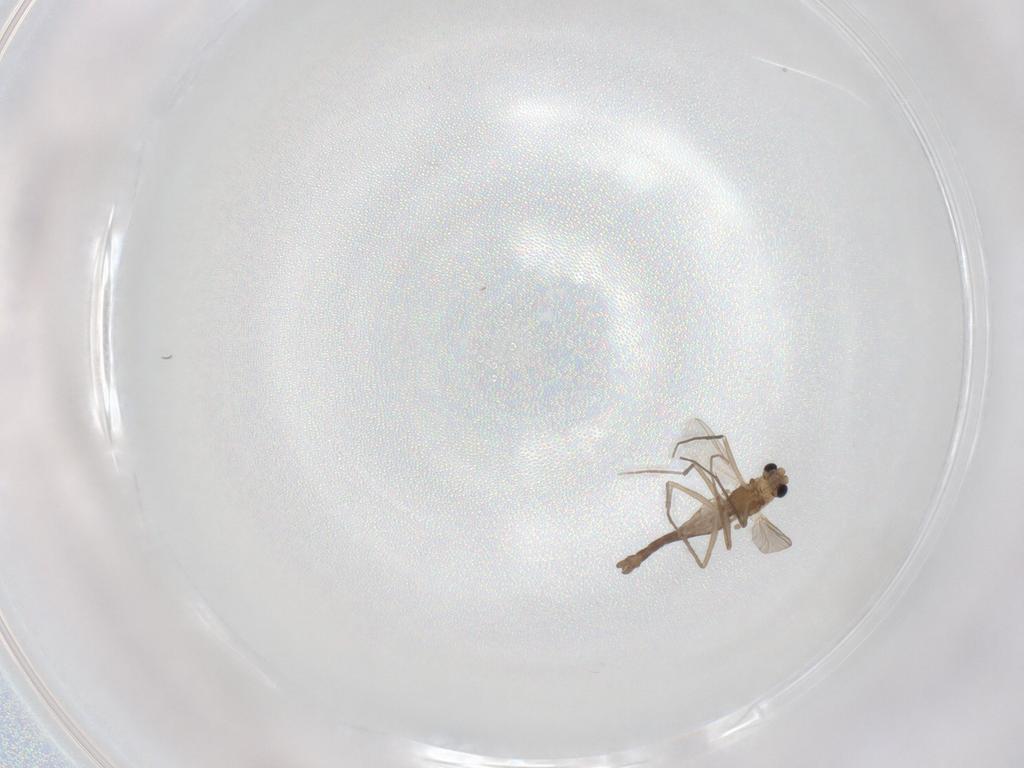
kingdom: Animalia
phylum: Arthropoda
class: Insecta
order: Diptera
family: Chironomidae
